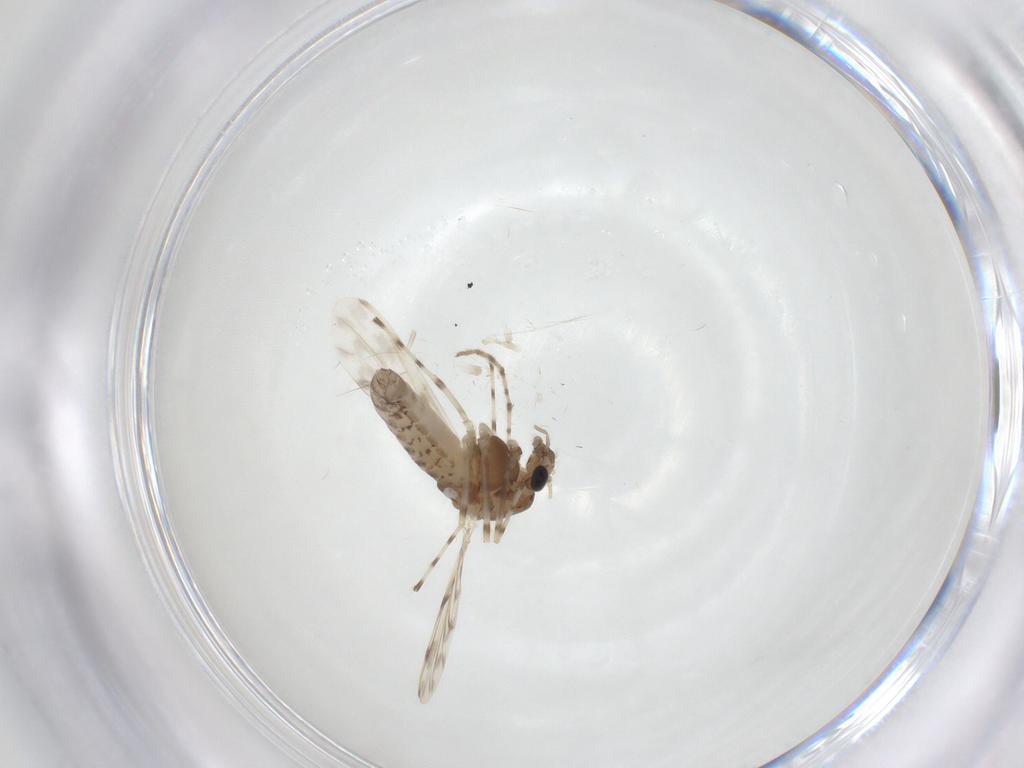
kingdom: Animalia
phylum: Arthropoda
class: Insecta
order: Diptera
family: Chironomidae
